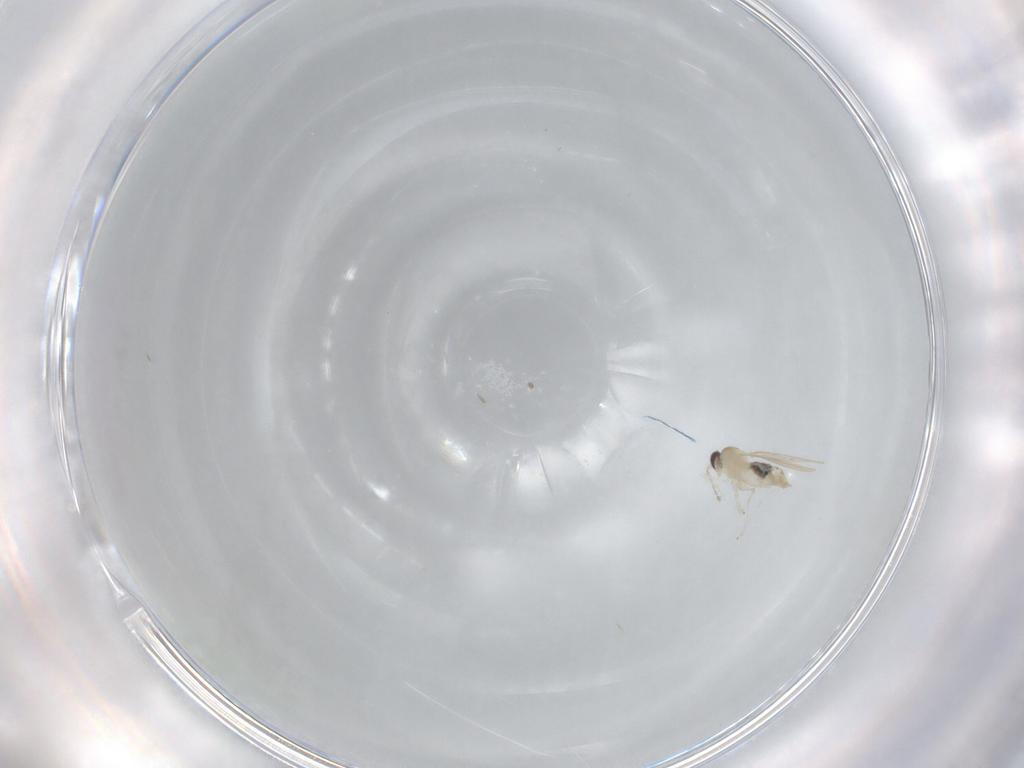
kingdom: Animalia
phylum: Arthropoda
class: Insecta
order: Diptera
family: Cecidomyiidae
